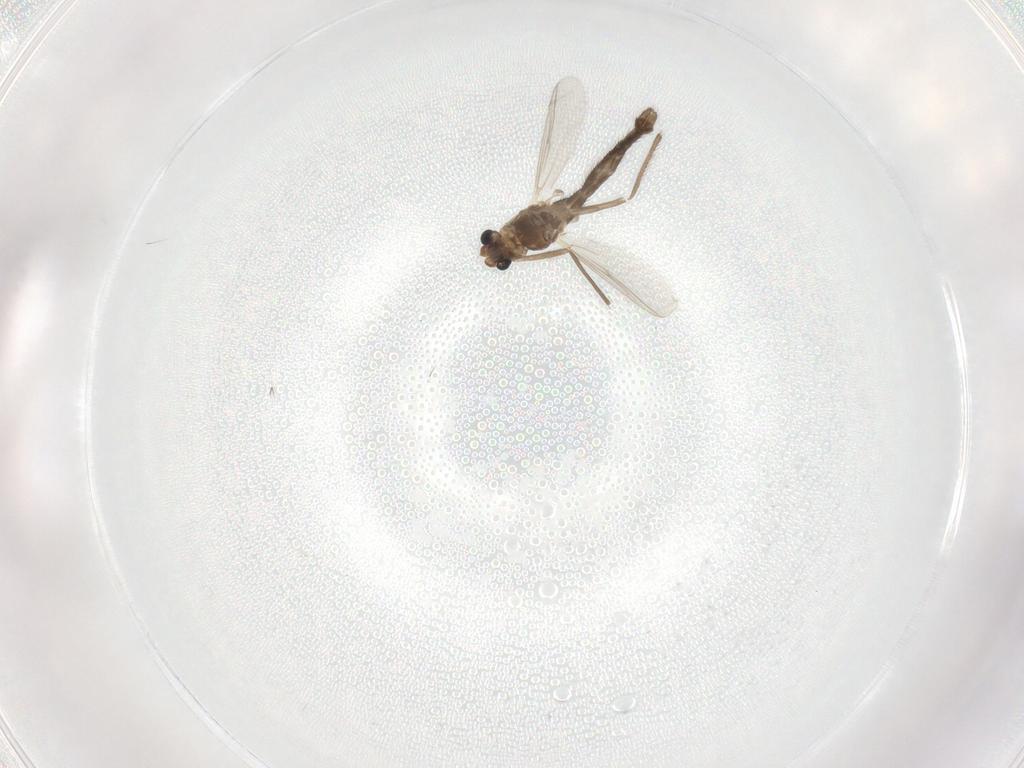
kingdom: Animalia
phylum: Arthropoda
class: Insecta
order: Diptera
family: Chironomidae
